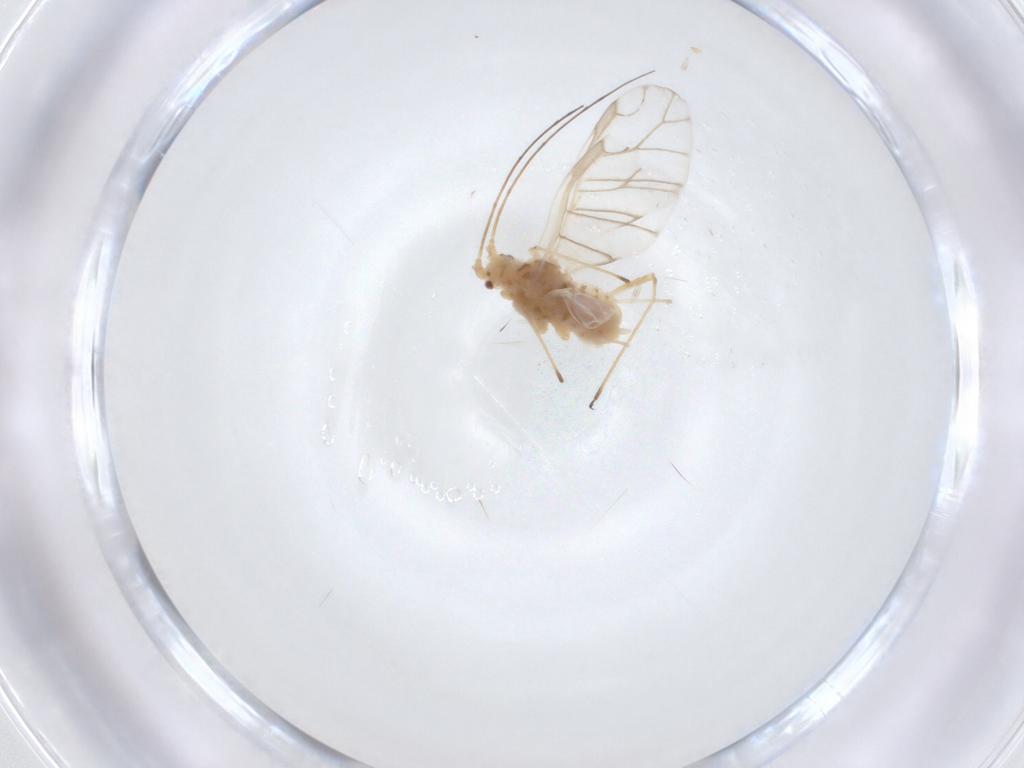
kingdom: Animalia
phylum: Arthropoda
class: Insecta
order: Hemiptera
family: Aphididae
